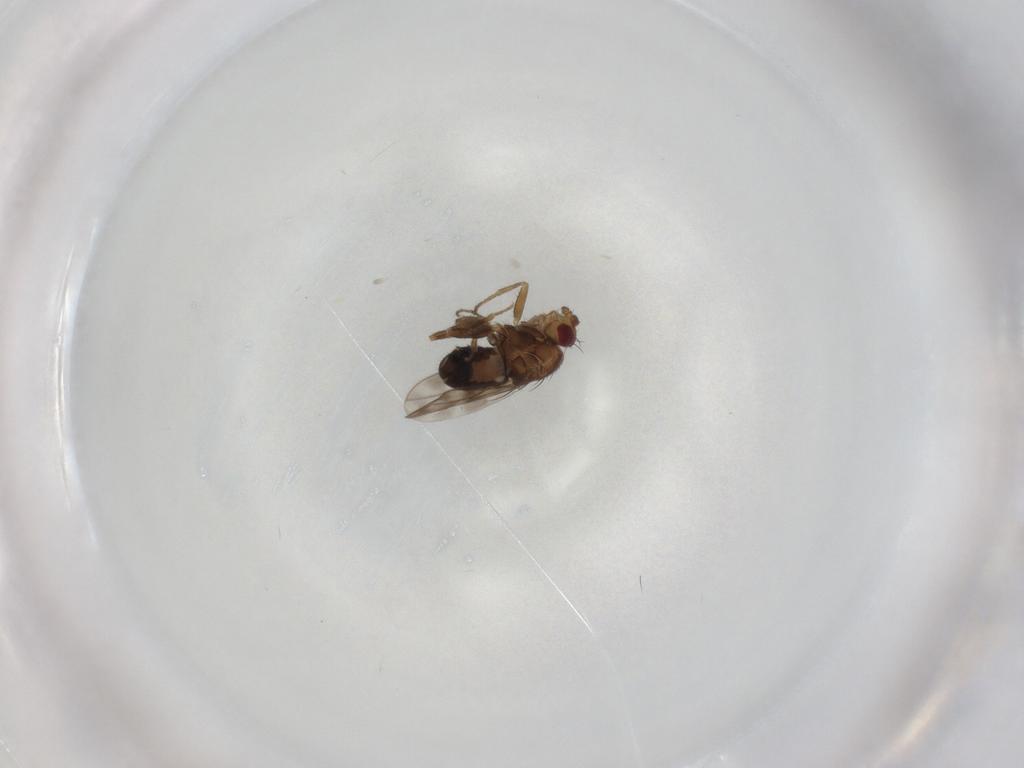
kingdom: Animalia
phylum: Arthropoda
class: Insecta
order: Diptera
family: Sphaeroceridae
